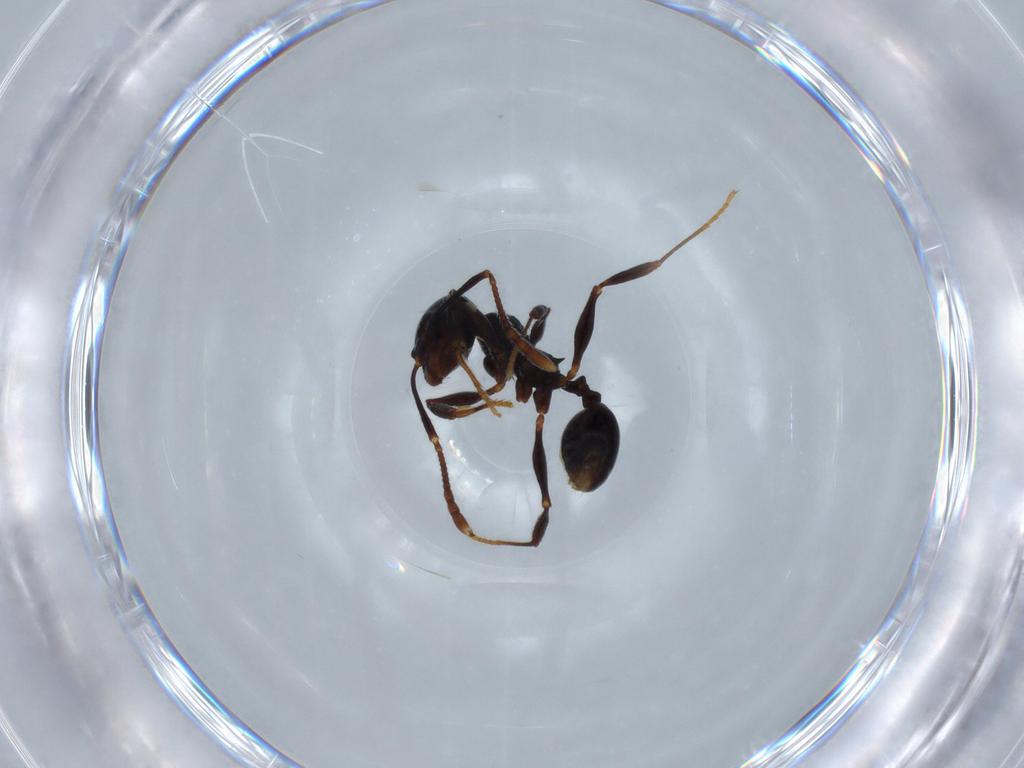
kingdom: Animalia
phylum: Arthropoda
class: Insecta
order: Hymenoptera
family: Formicidae
